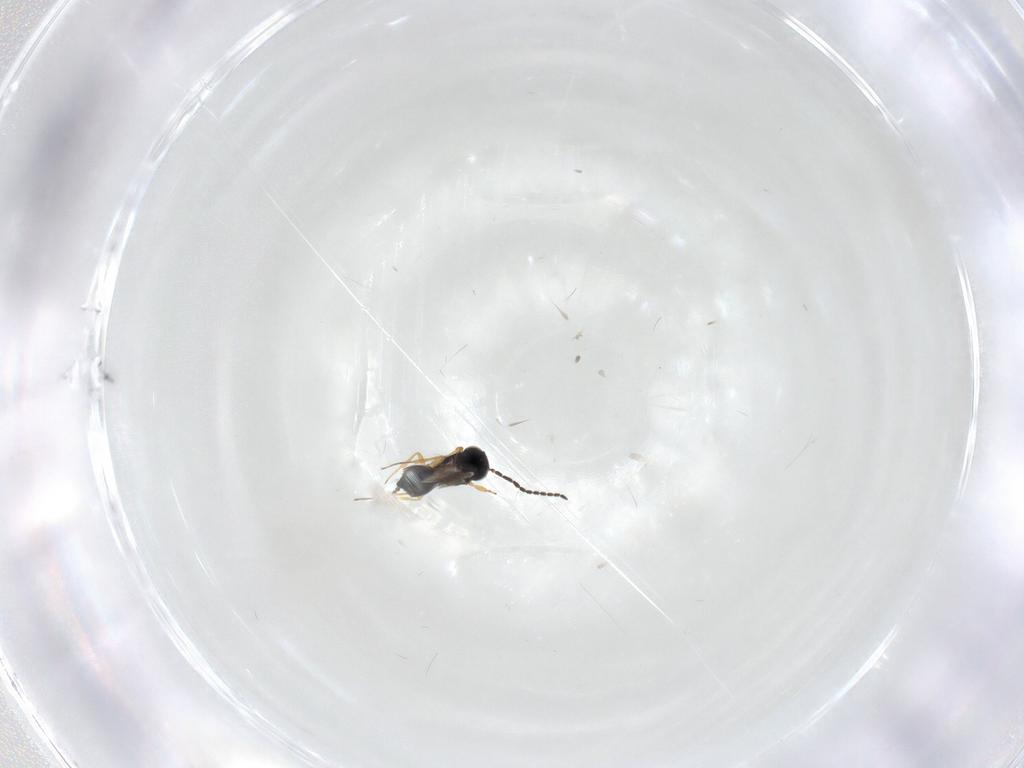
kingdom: Animalia
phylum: Arthropoda
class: Insecta
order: Hymenoptera
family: Scelionidae
